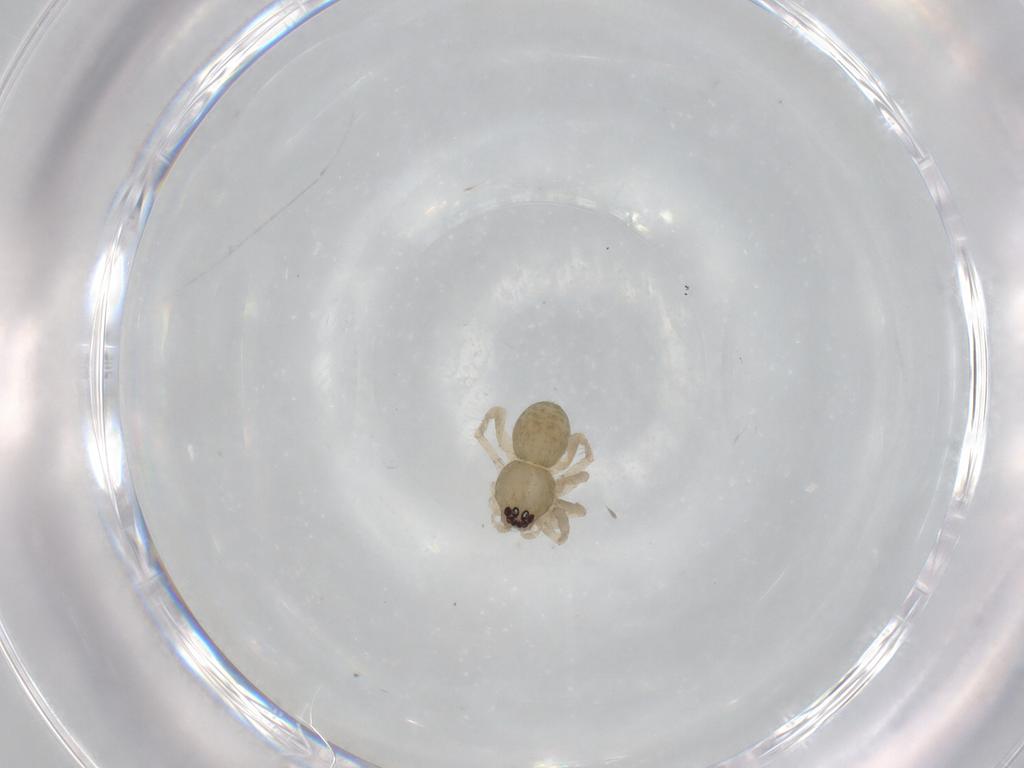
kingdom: Animalia
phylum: Arthropoda
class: Arachnida
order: Araneae
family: Anyphaenidae
